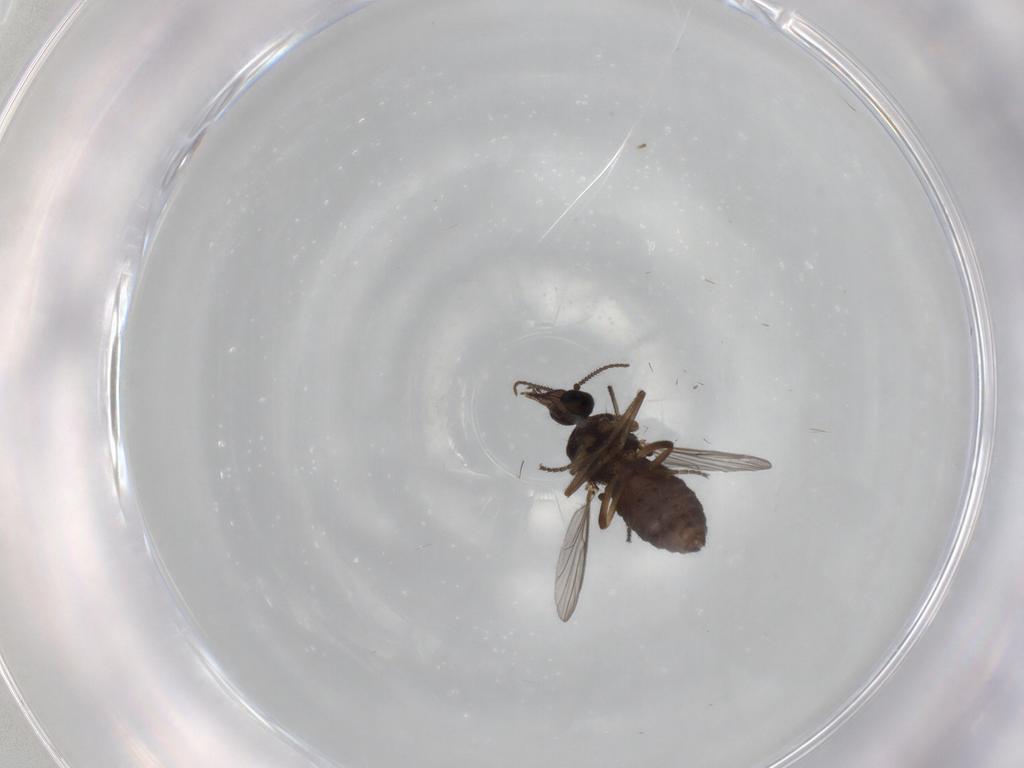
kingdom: Animalia
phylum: Arthropoda
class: Insecta
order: Diptera
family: Ceratopogonidae
